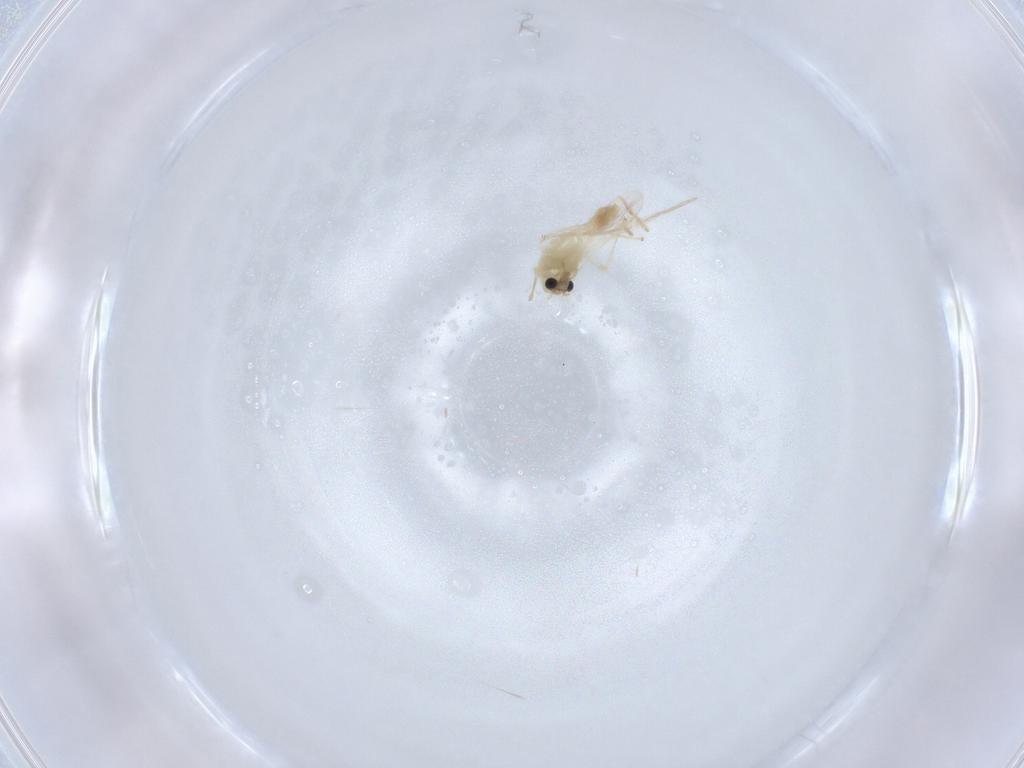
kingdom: Animalia
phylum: Arthropoda
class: Insecta
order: Diptera
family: Chironomidae
